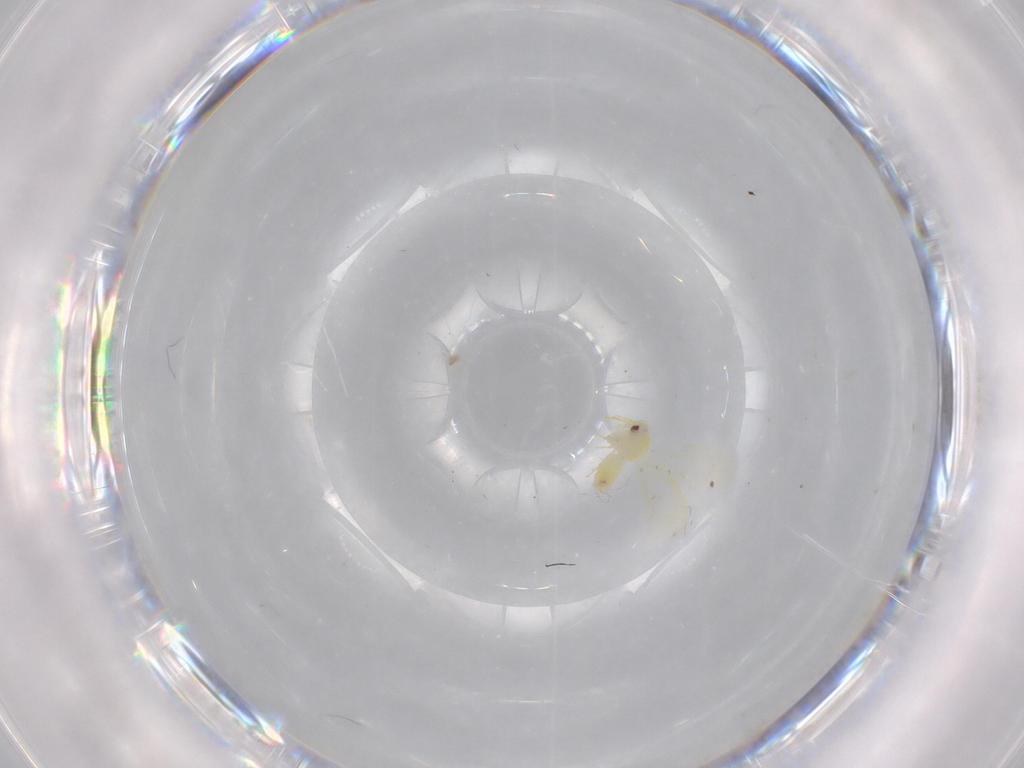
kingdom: Animalia
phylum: Arthropoda
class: Insecta
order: Hemiptera
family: Aleyrodidae
